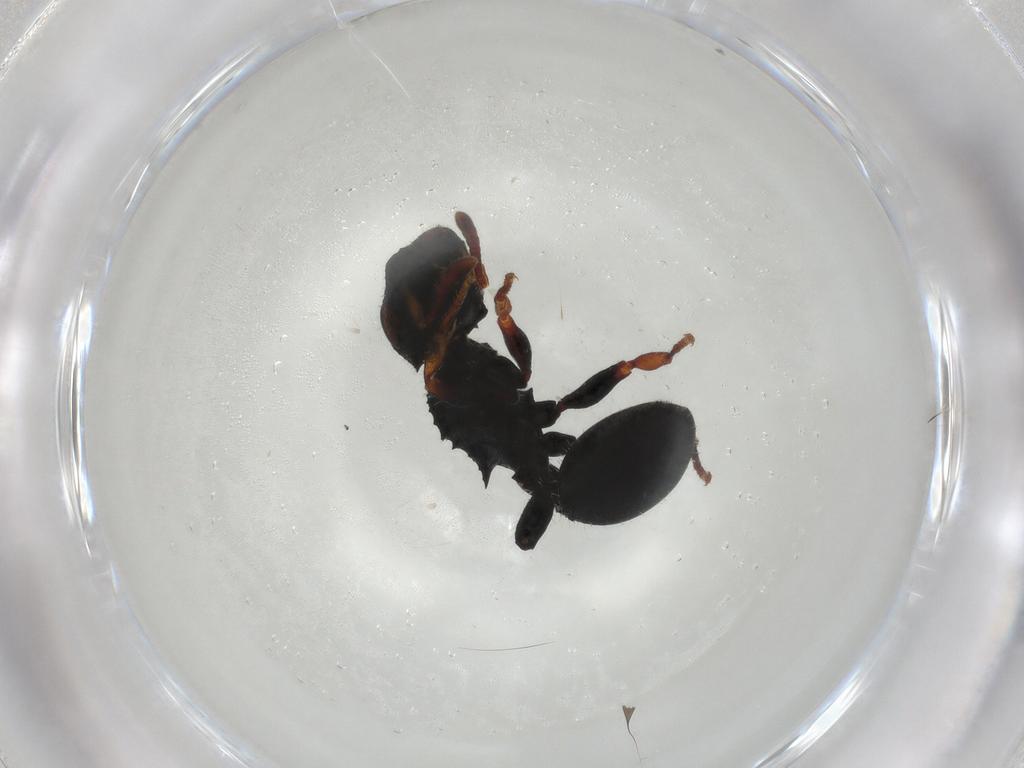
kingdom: Animalia
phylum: Arthropoda
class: Insecta
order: Hymenoptera
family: Formicidae
